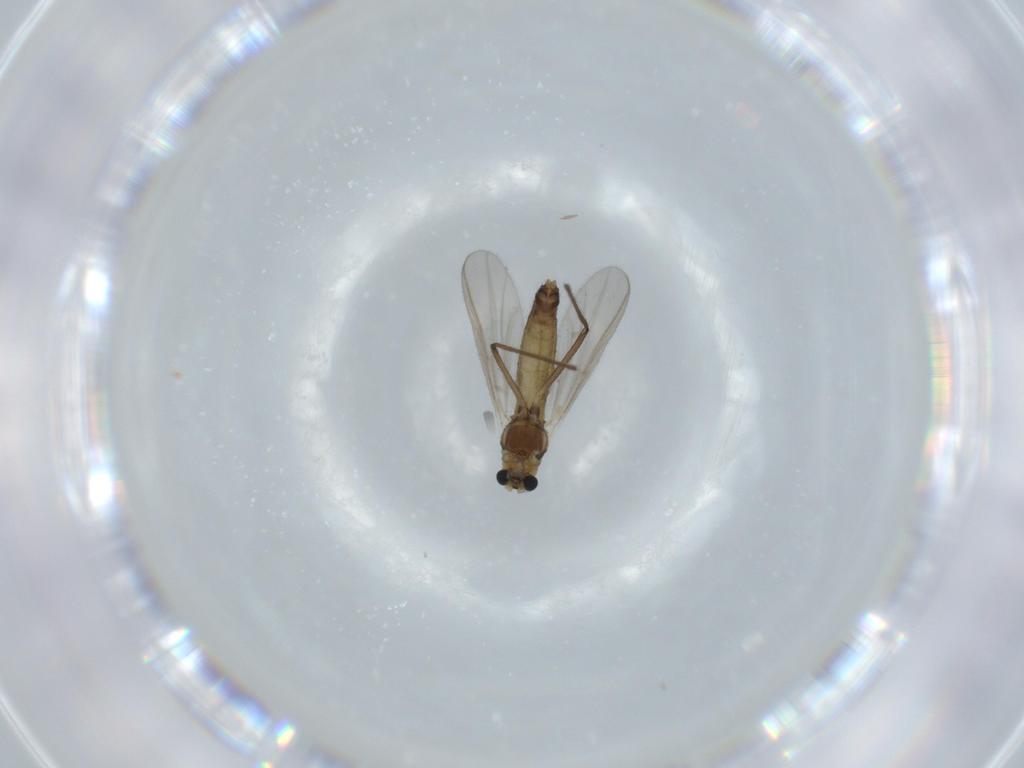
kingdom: Animalia
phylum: Arthropoda
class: Insecta
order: Diptera
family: Chironomidae
